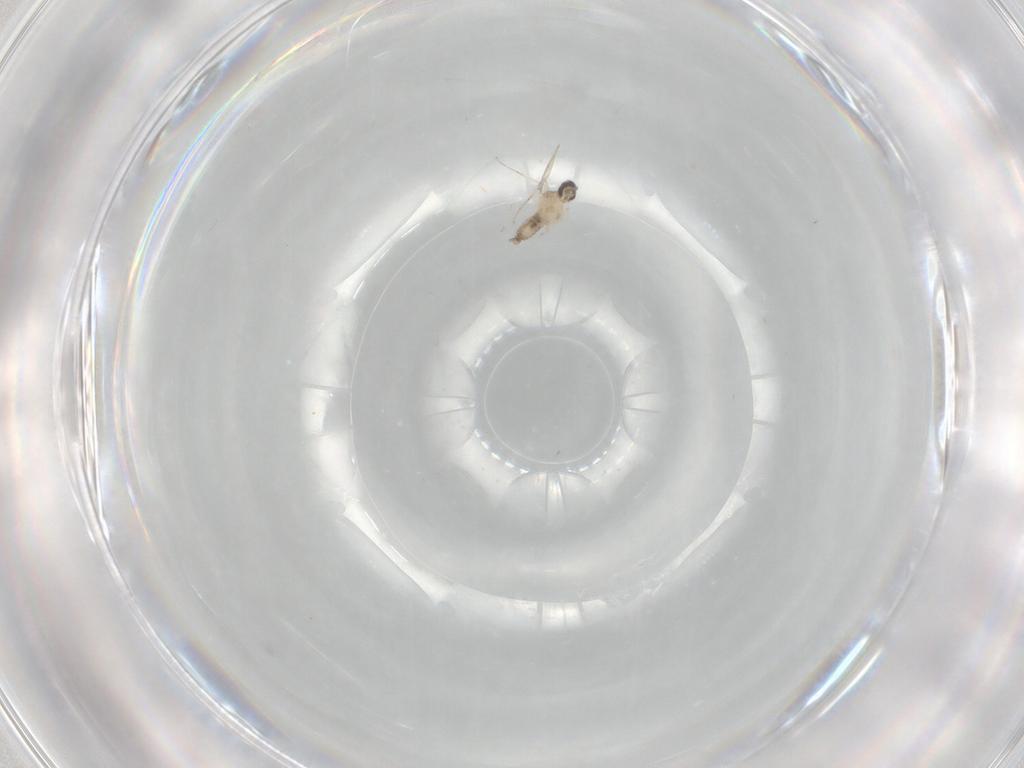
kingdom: Animalia
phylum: Arthropoda
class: Insecta
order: Diptera
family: Cecidomyiidae
